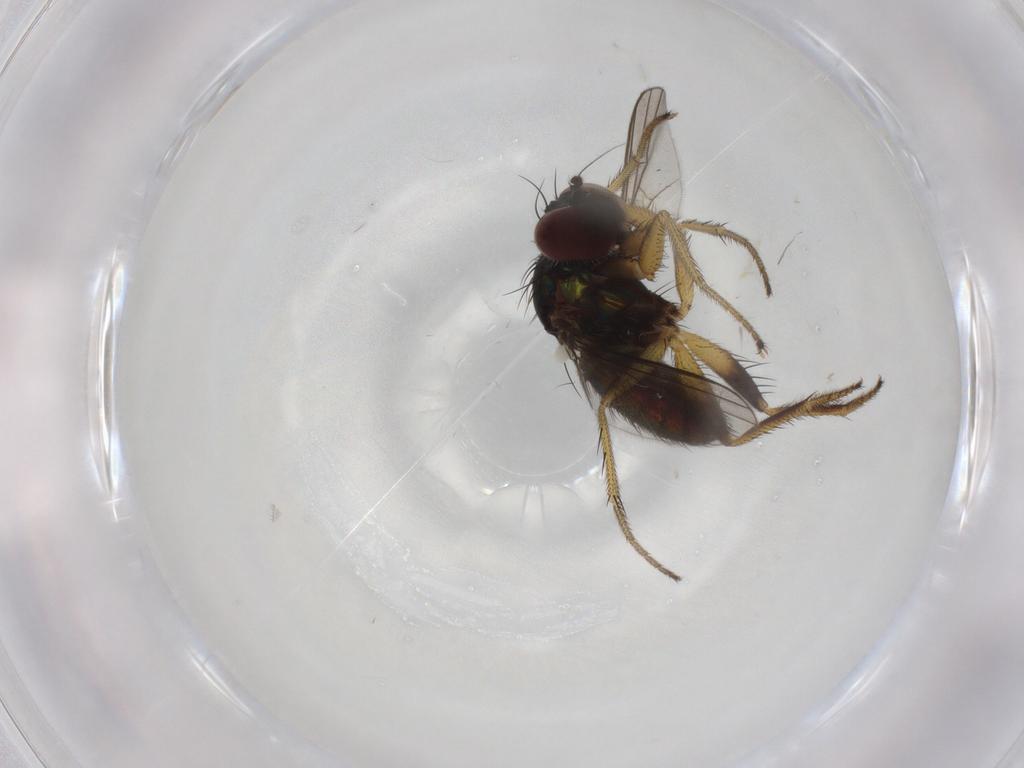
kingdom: Animalia
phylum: Arthropoda
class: Insecta
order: Diptera
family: Dolichopodidae
